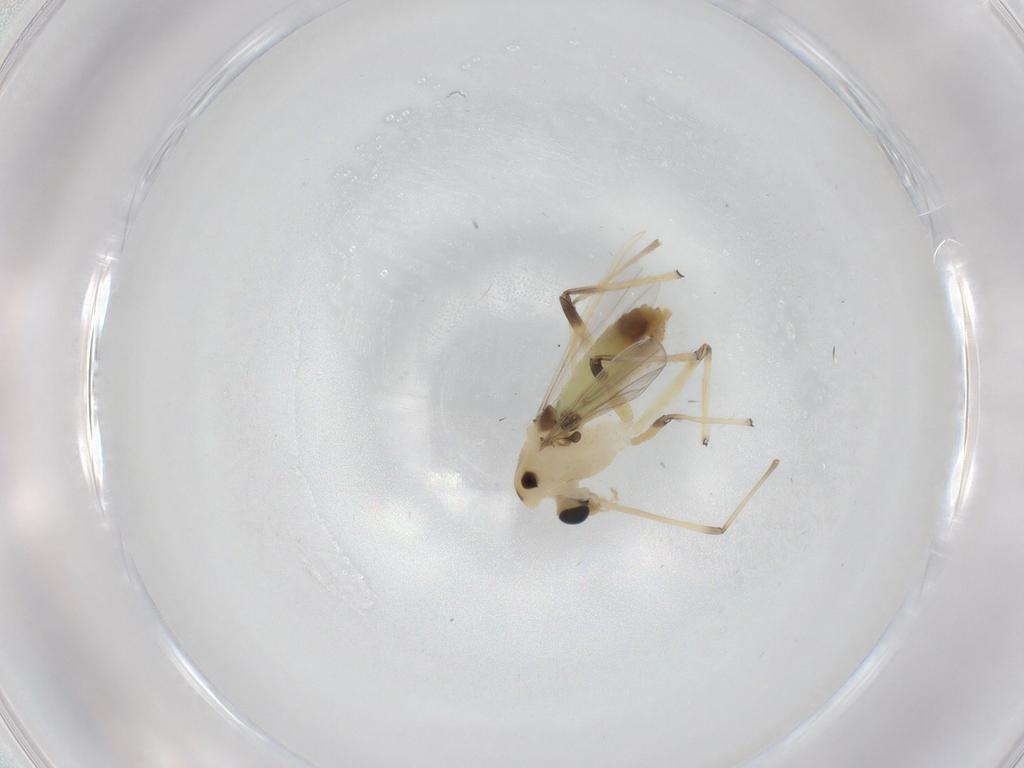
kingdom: Animalia
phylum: Arthropoda
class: Insecta
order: Diptera
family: Chironomidae
